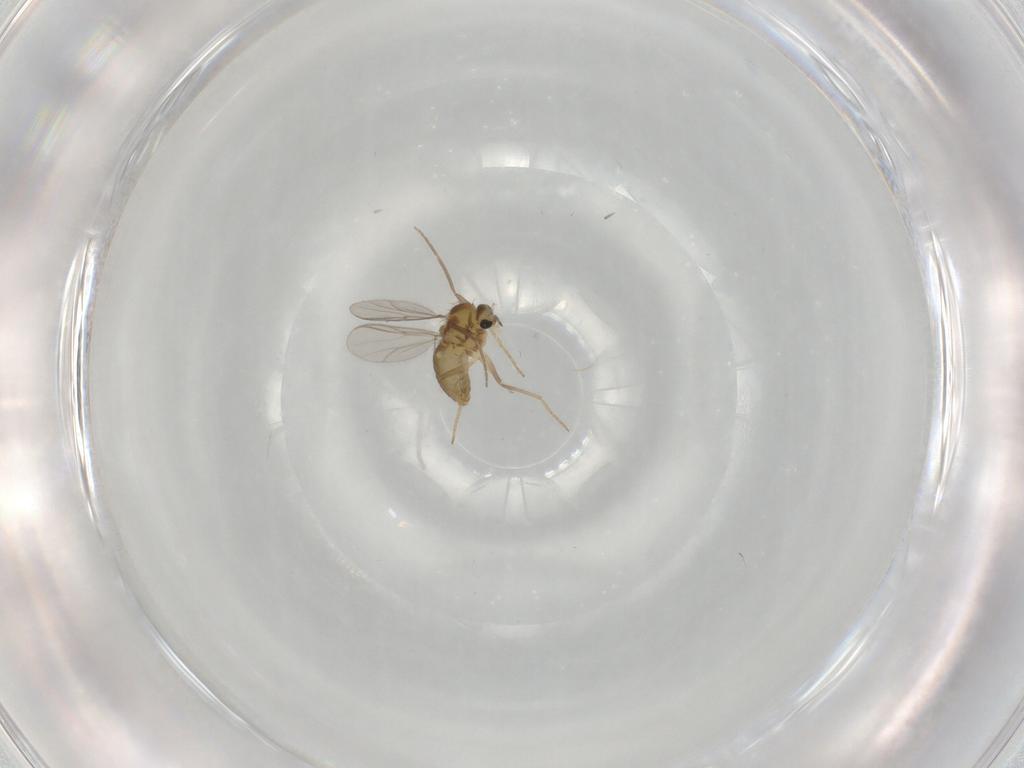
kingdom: Animalia
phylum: Arthropoda
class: Insecta
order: Diptera
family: Chironomidae
